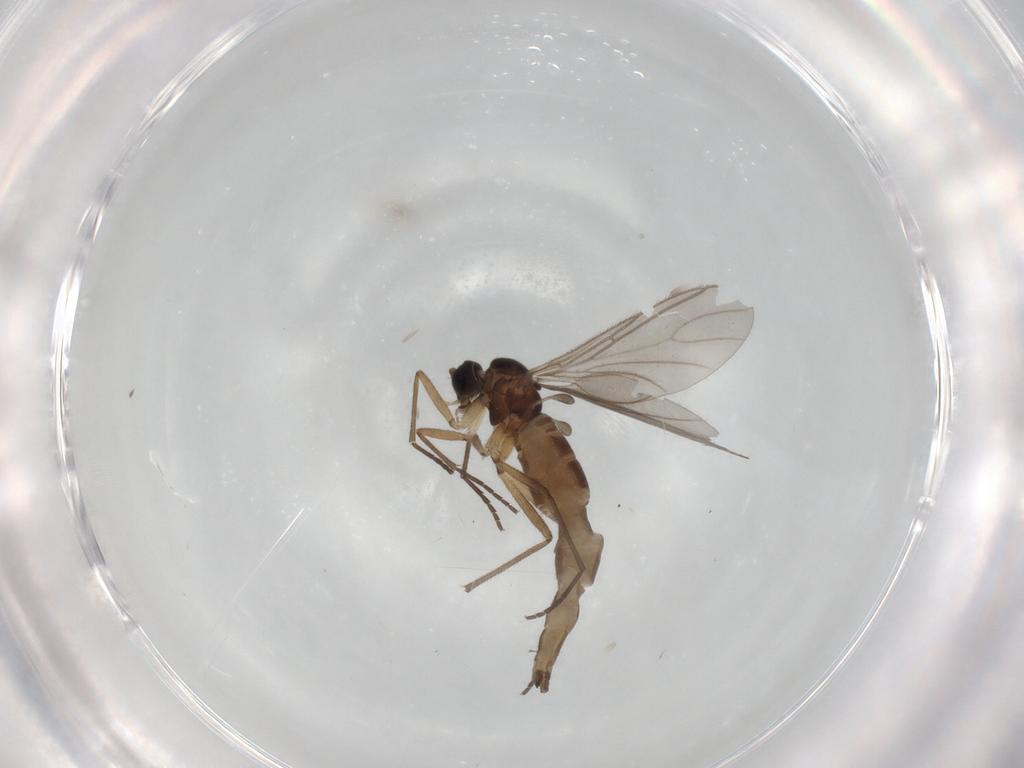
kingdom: Animalia
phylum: Arthropoda
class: Insecta
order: Diptera
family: Sciaridae
